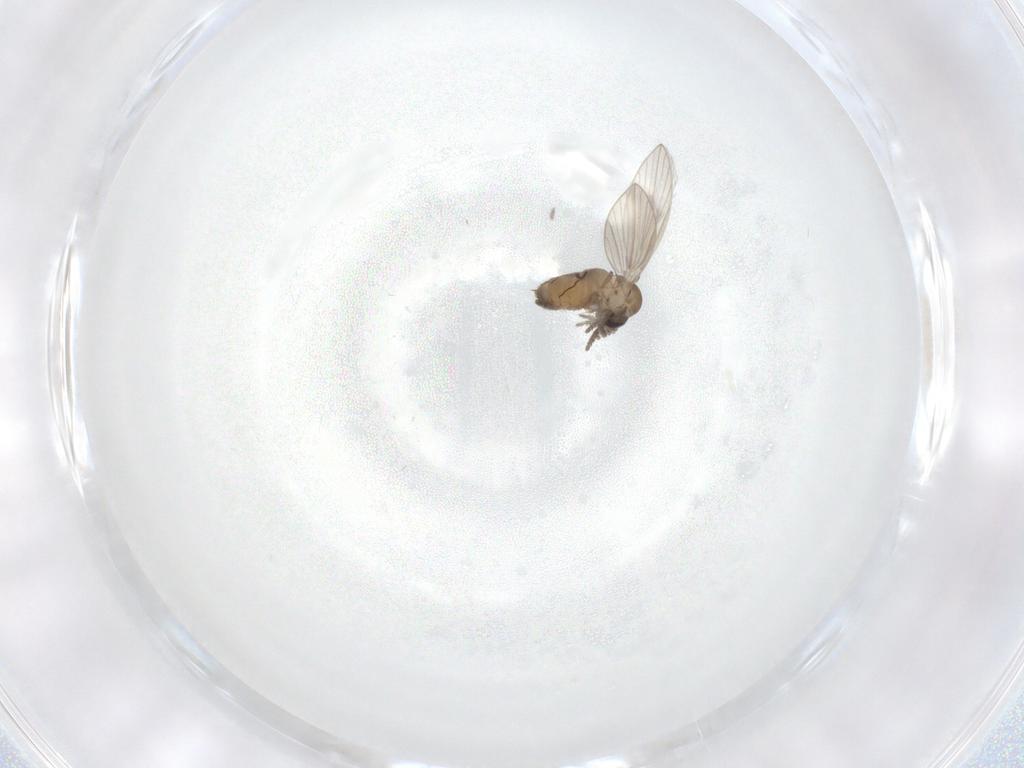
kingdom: Animalia
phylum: Arthropoda
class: Insecta
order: Diptera
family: Psychodidae
